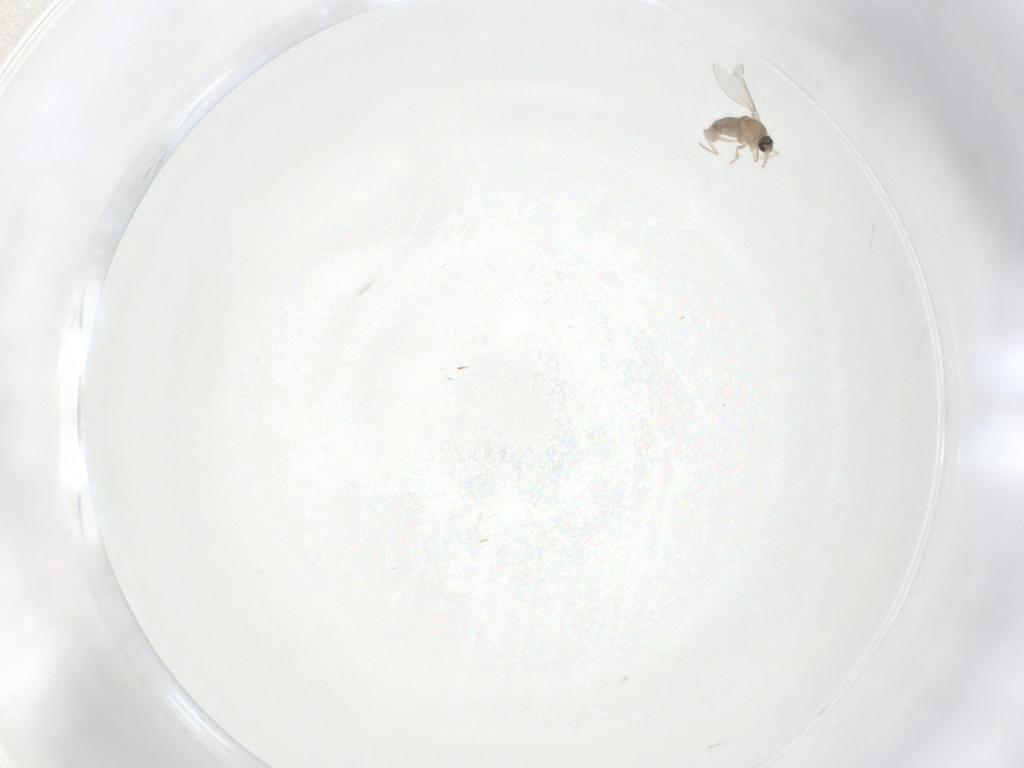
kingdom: Animalia
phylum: Arthropoda
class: Insecta
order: Diptera
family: Cecidomyiidae
